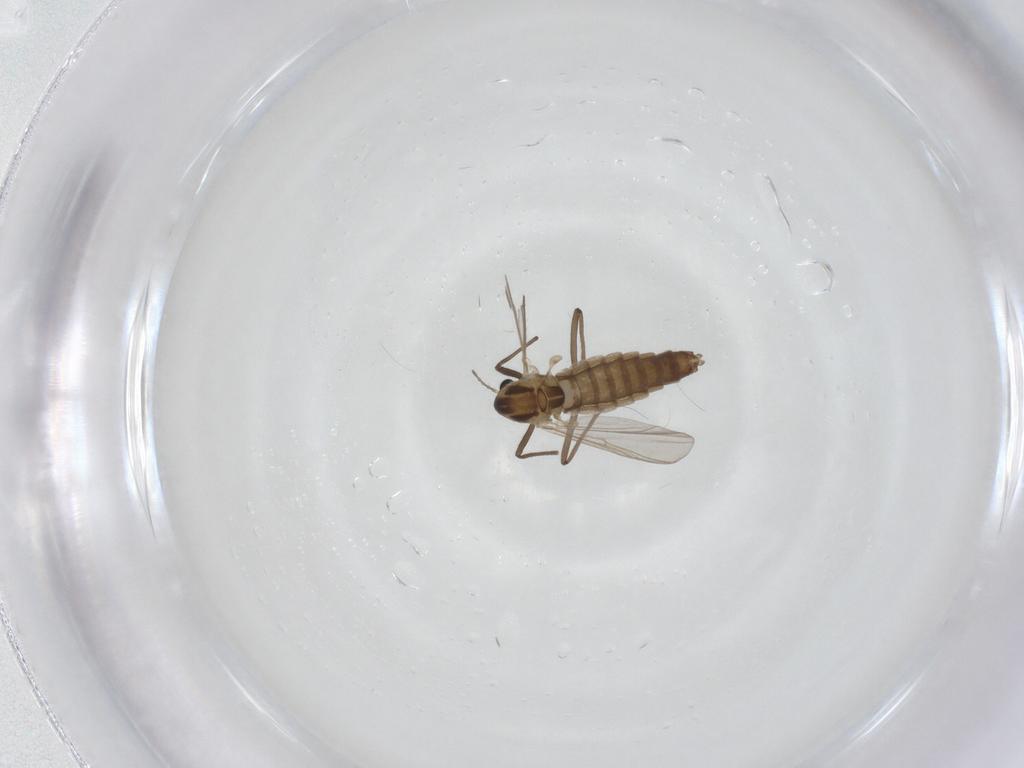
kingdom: Animalia
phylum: Arthropoda
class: Insecta
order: Diptera
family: Chironomidae
